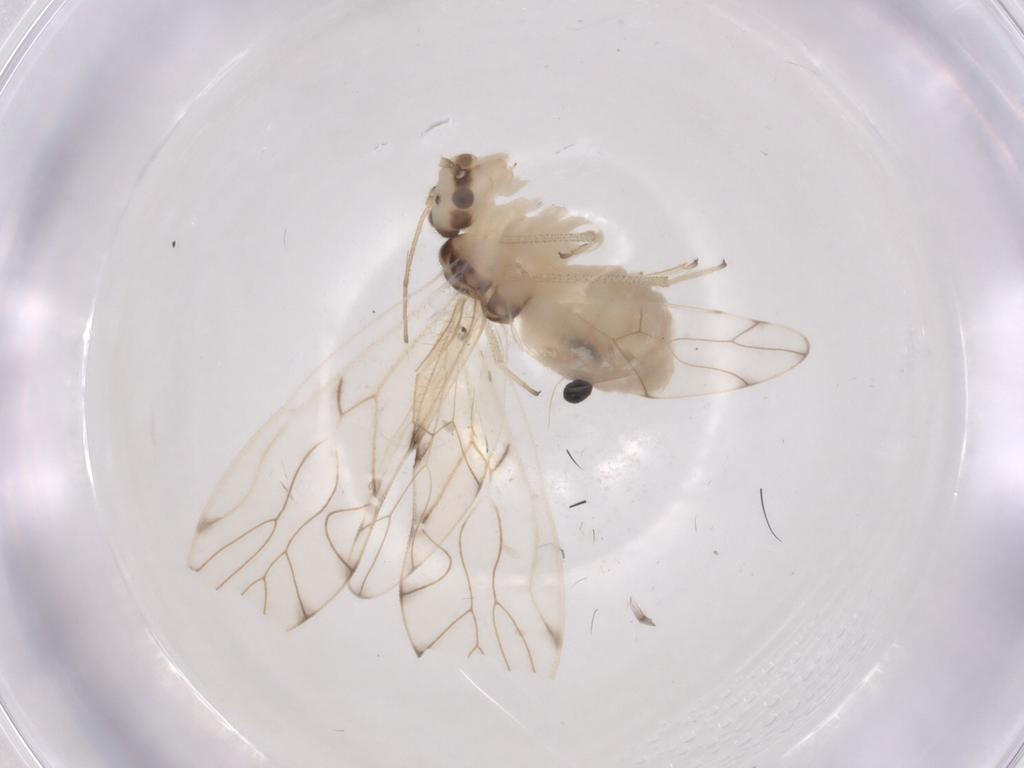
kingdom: Animalia
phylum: Arthropoda
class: Insecta
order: Psocodea
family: Philotarsidae
